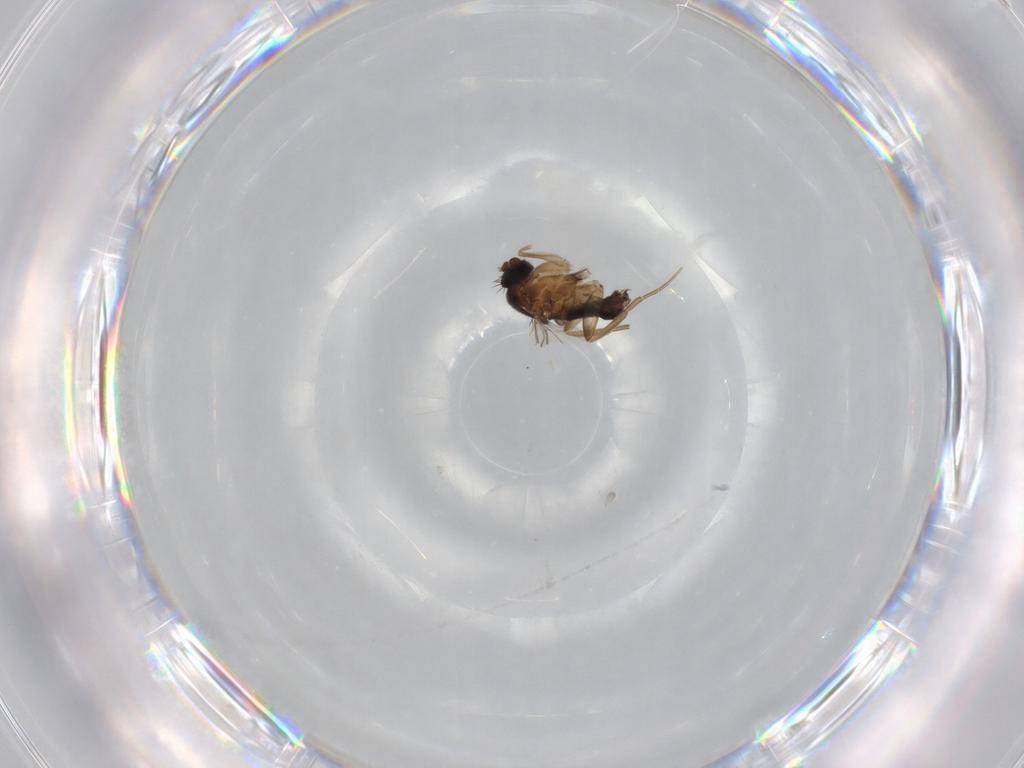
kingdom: Animalia
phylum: Arthropoda
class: Insecta
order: Diptera
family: Phoridae
